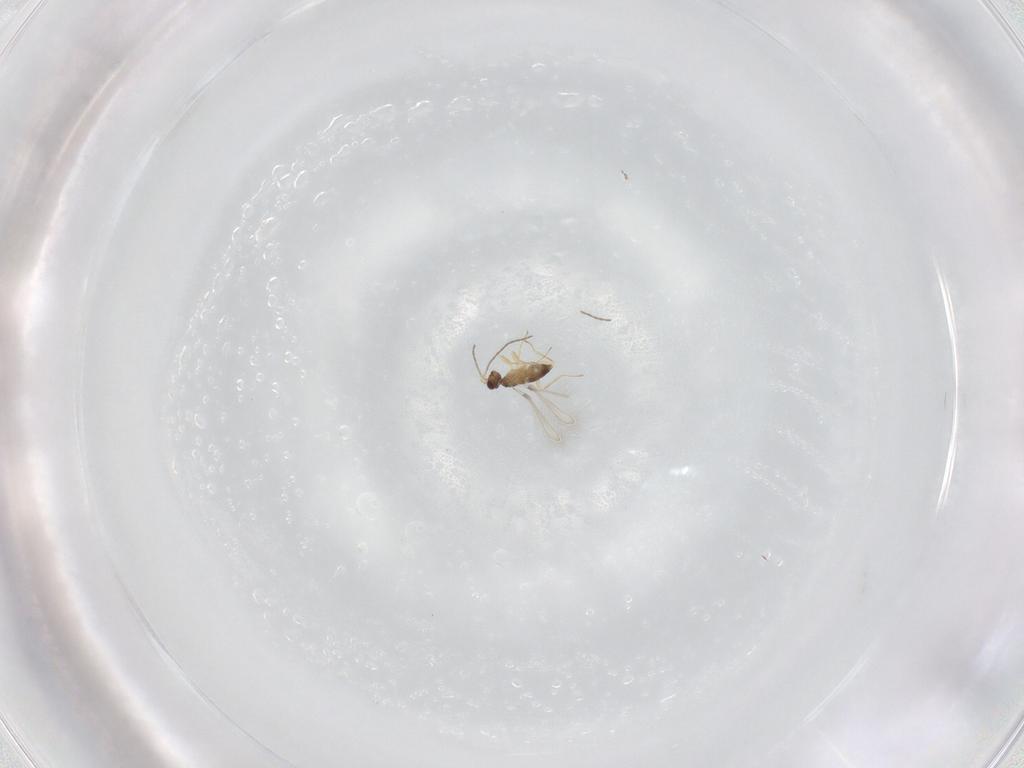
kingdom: Animalia
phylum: Arthropoda
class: Insecta
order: Hymenoptera
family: Mymaridae
